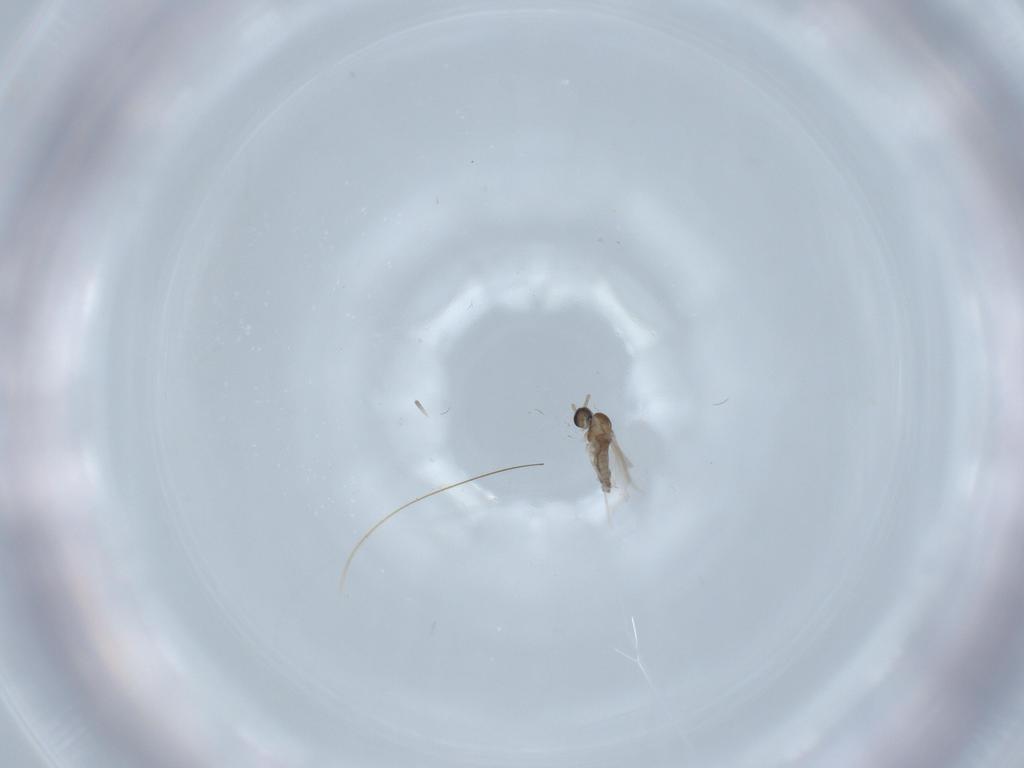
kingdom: Animalia
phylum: Arthropoda
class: Insecta
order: Diptera
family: Cecidomyiidae
